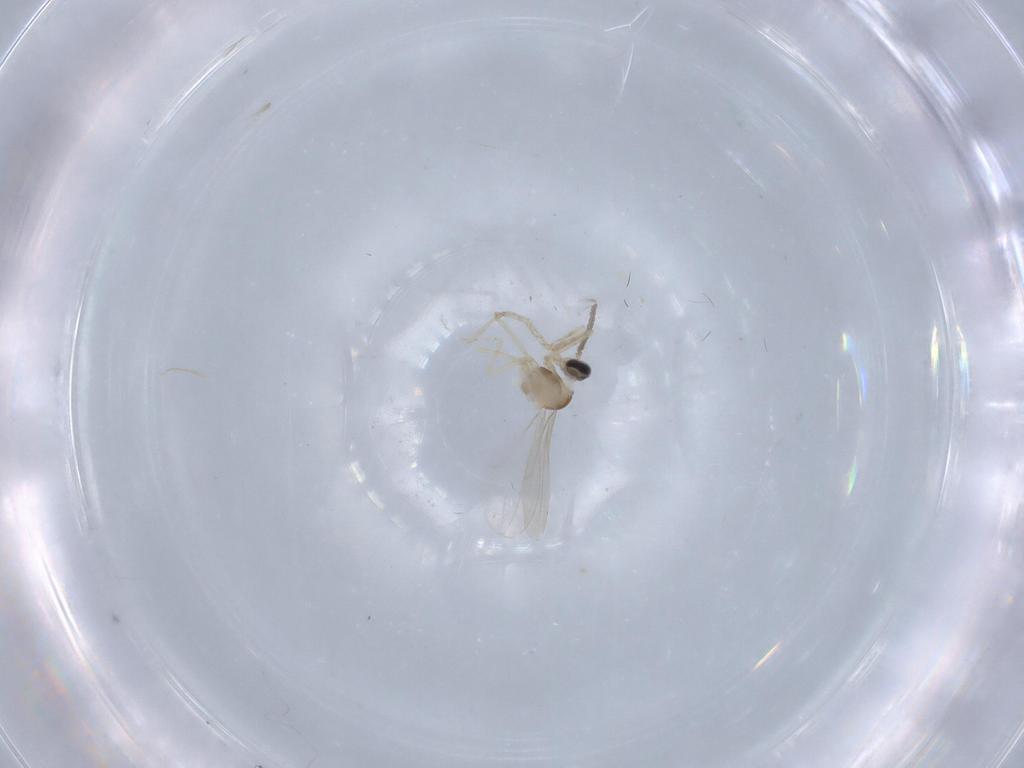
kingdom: Animalia
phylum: Arthropoda
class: Insecta
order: Diptera
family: Cecidomyiidae
